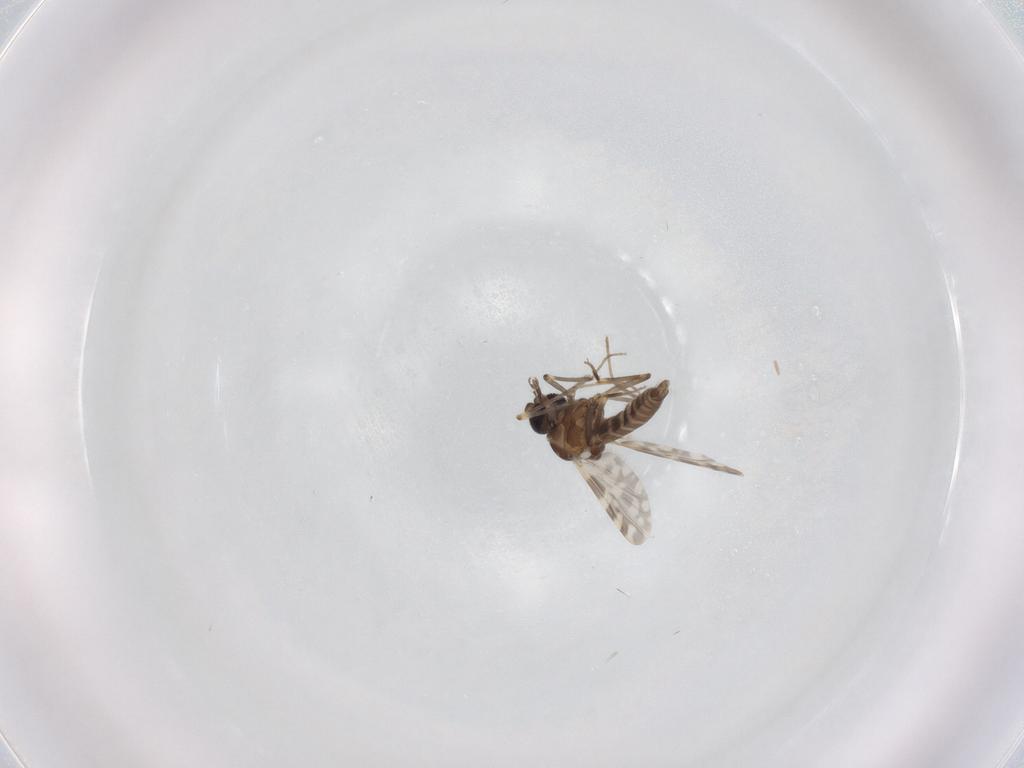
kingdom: Animalia
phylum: Arthropoda
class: Insecta
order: Diptera
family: Ceratopogonidae
